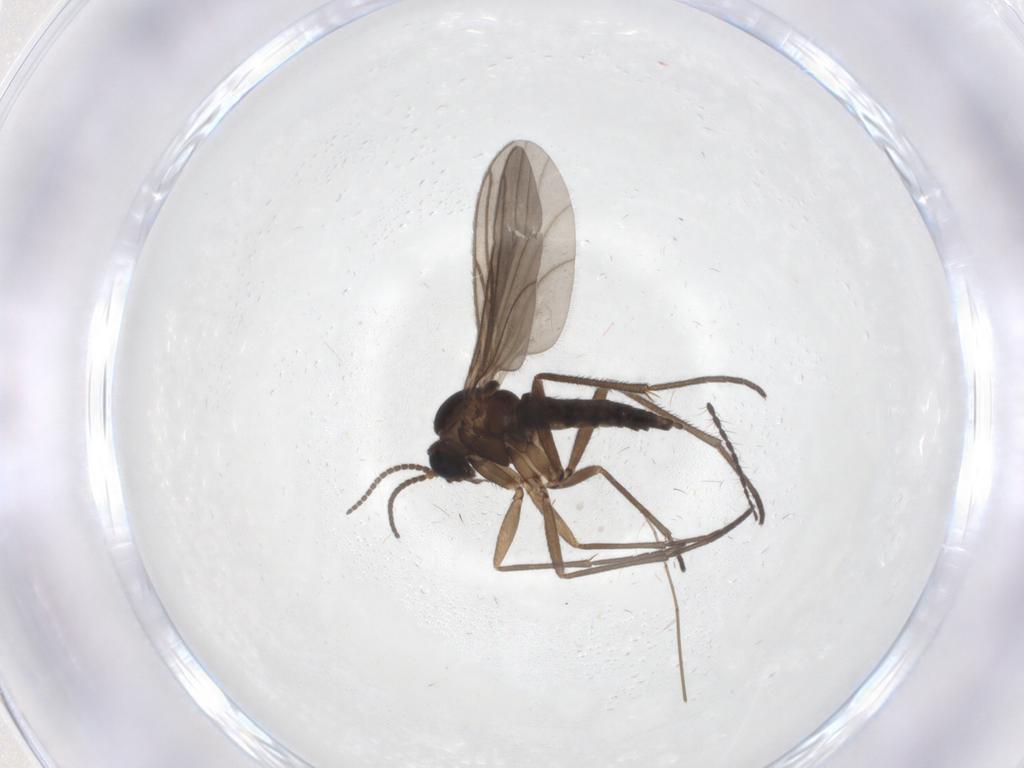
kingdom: Animalia
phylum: Arthropoda
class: Insecta
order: Diptera
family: Sciaridae
